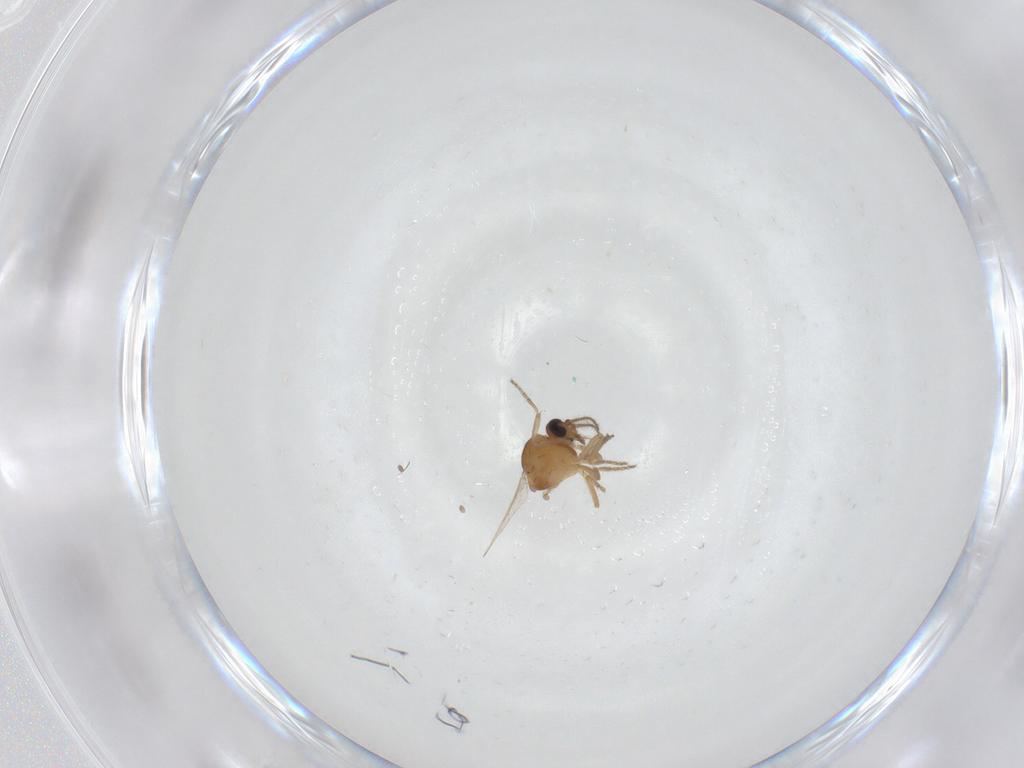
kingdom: Animalia
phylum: Arthropoda
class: Insecta
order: Diptera
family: Ceratopogonidae
